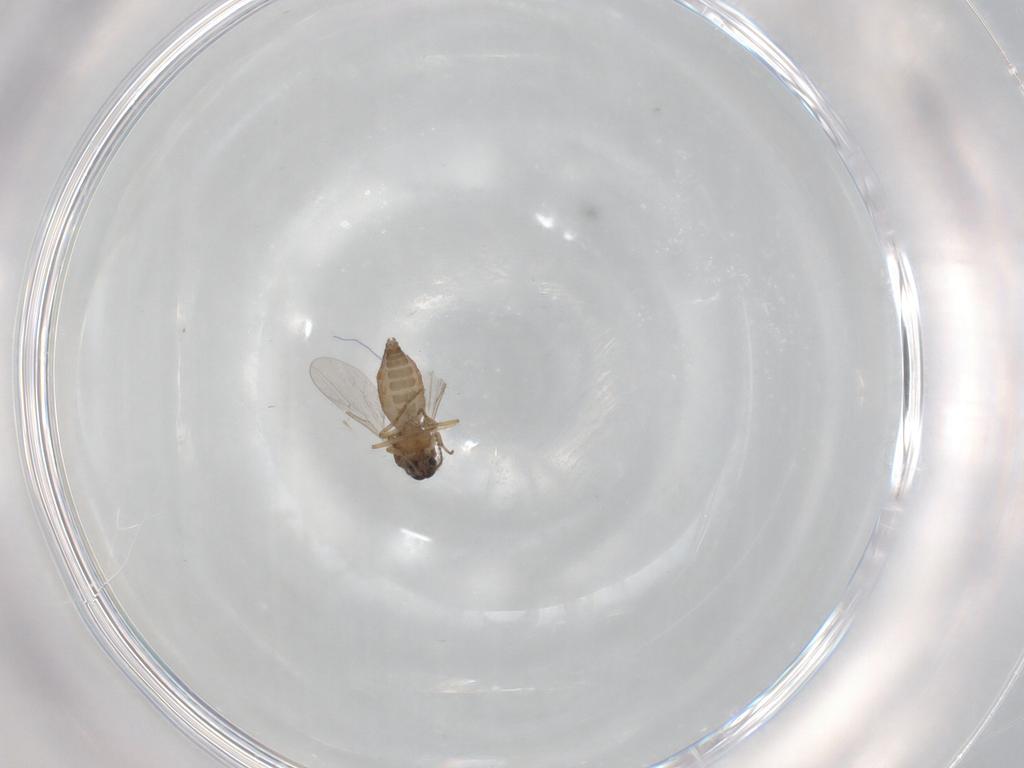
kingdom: Animalia
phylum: Arthropoda
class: Insecta
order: Diptera
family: Ceratopogonidae
